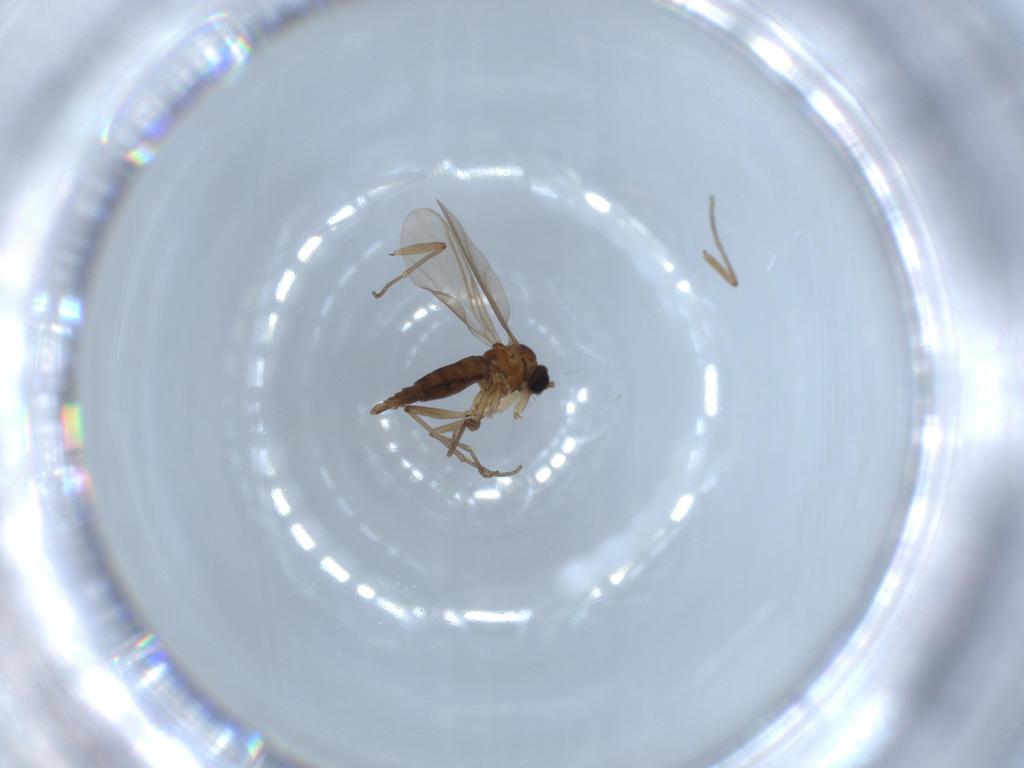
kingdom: Animalia
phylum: Arthropoda
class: Insecta
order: Diptera
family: Sciaridae
